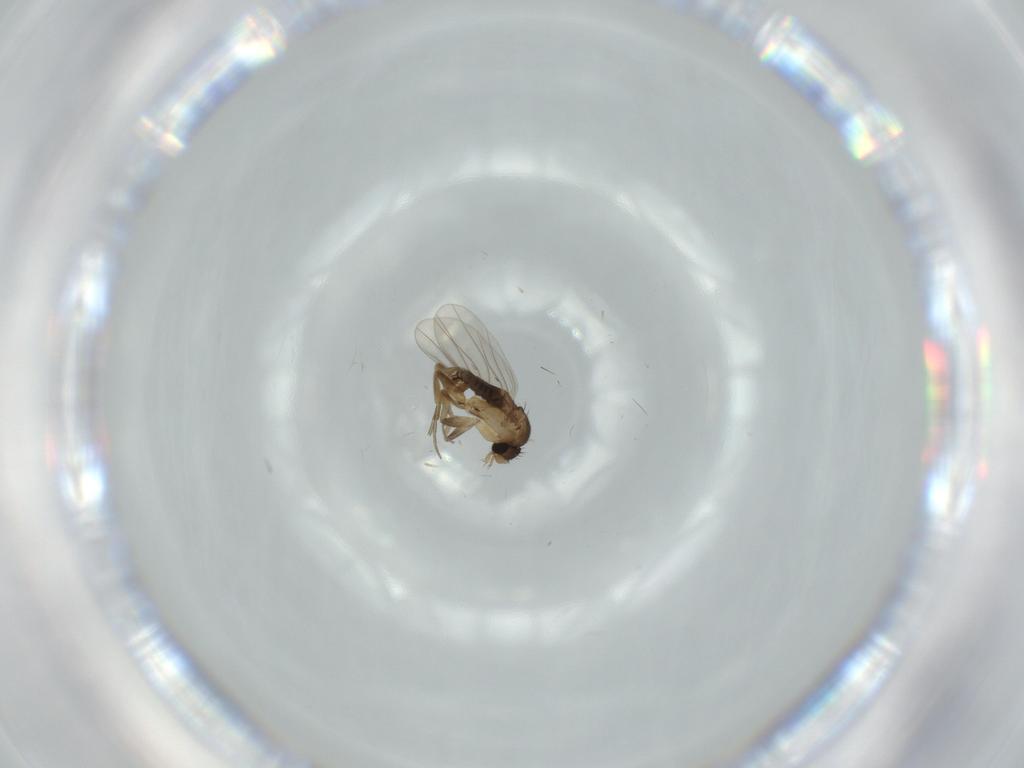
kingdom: Animalia
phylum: Arthropoda
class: Insecta
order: Diptera
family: Phoridae
